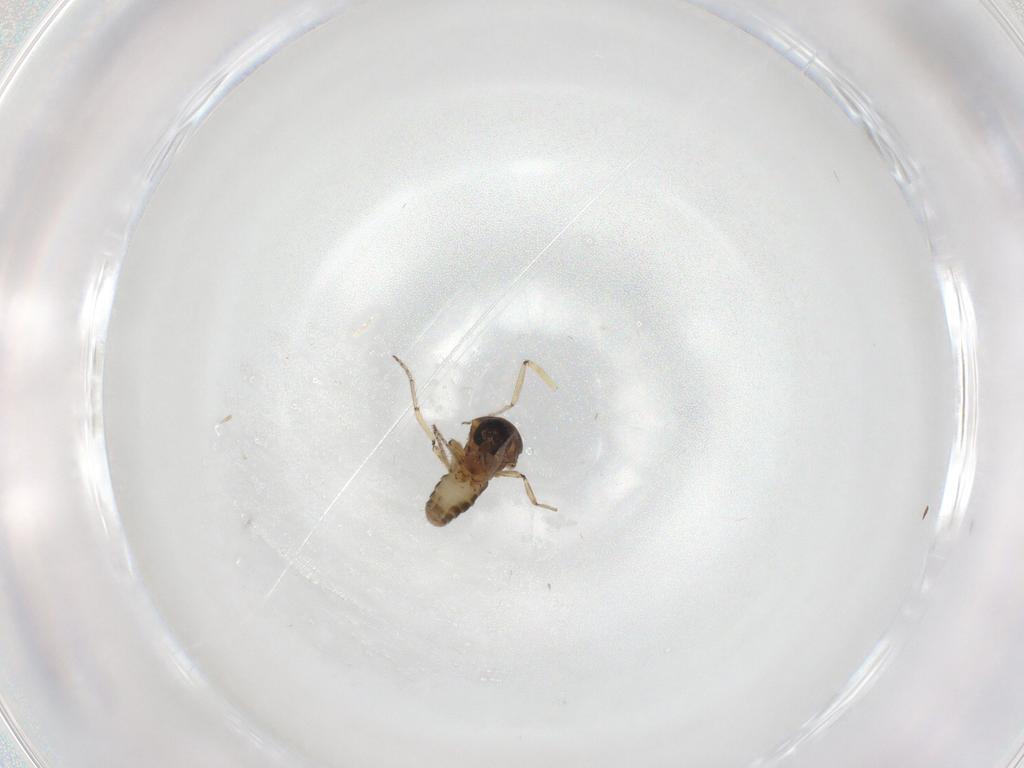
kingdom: Animalia
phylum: Arthropoda
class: Insecta
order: Diptera
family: Ceratopogonidae
